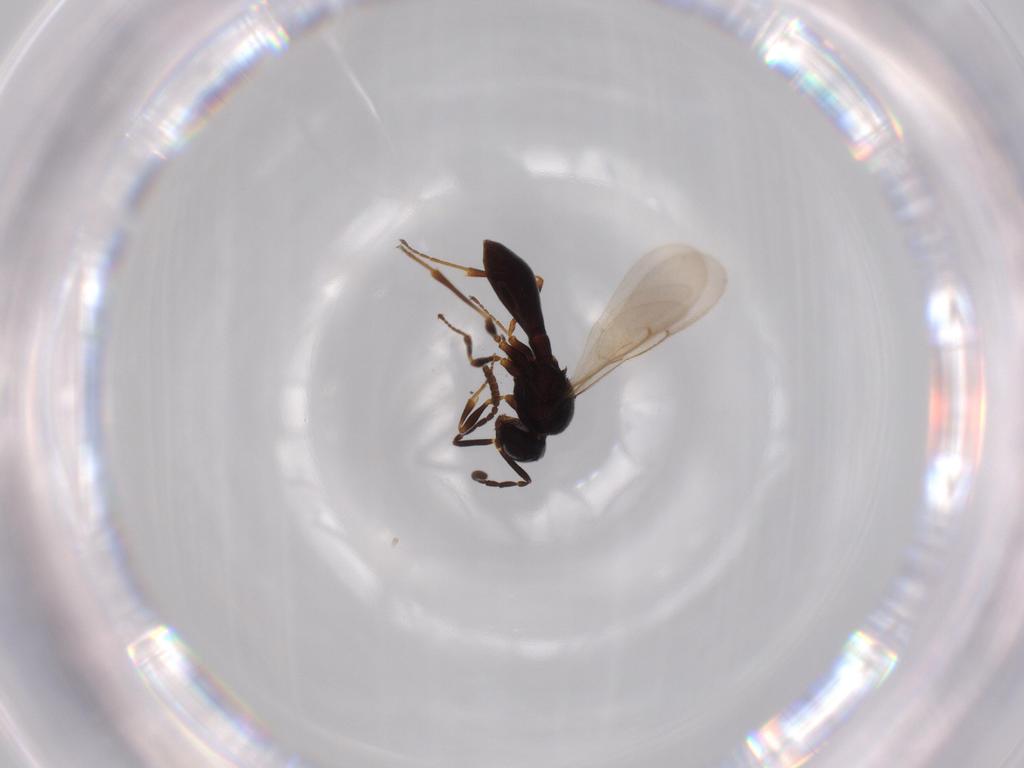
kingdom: Animalia
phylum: Arthropoda
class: Insecta
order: Hymenoptera
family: Scelionidae
